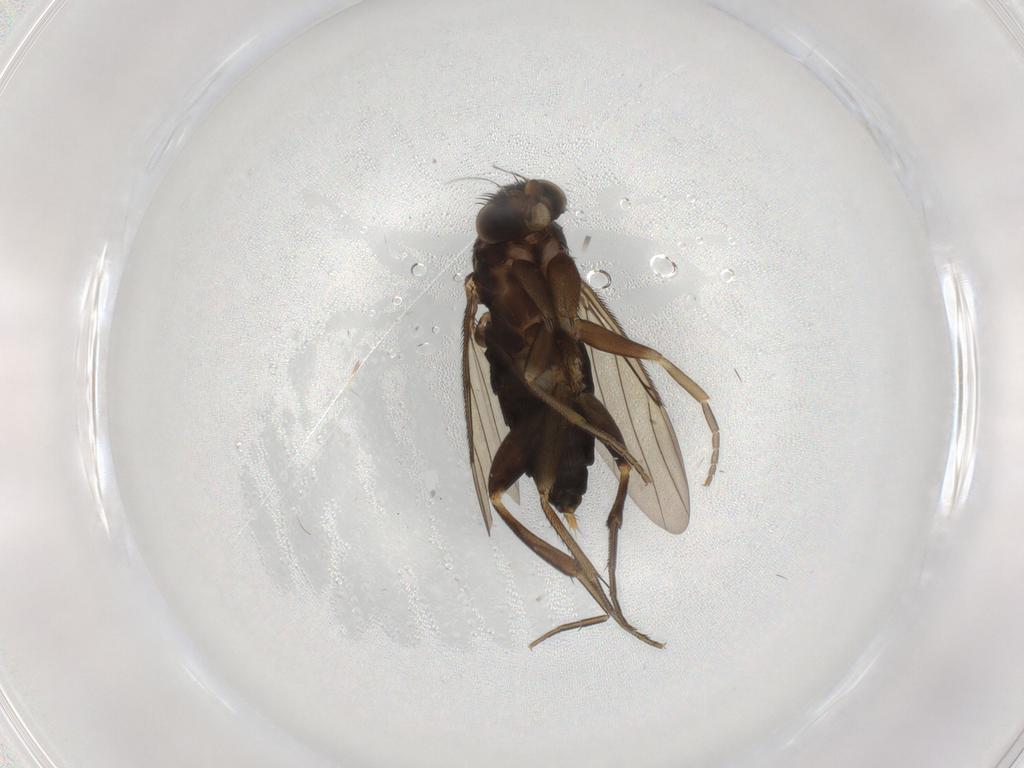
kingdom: Animalia
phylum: Arthropoda
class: Insecta
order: Diptera
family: Phoridae
